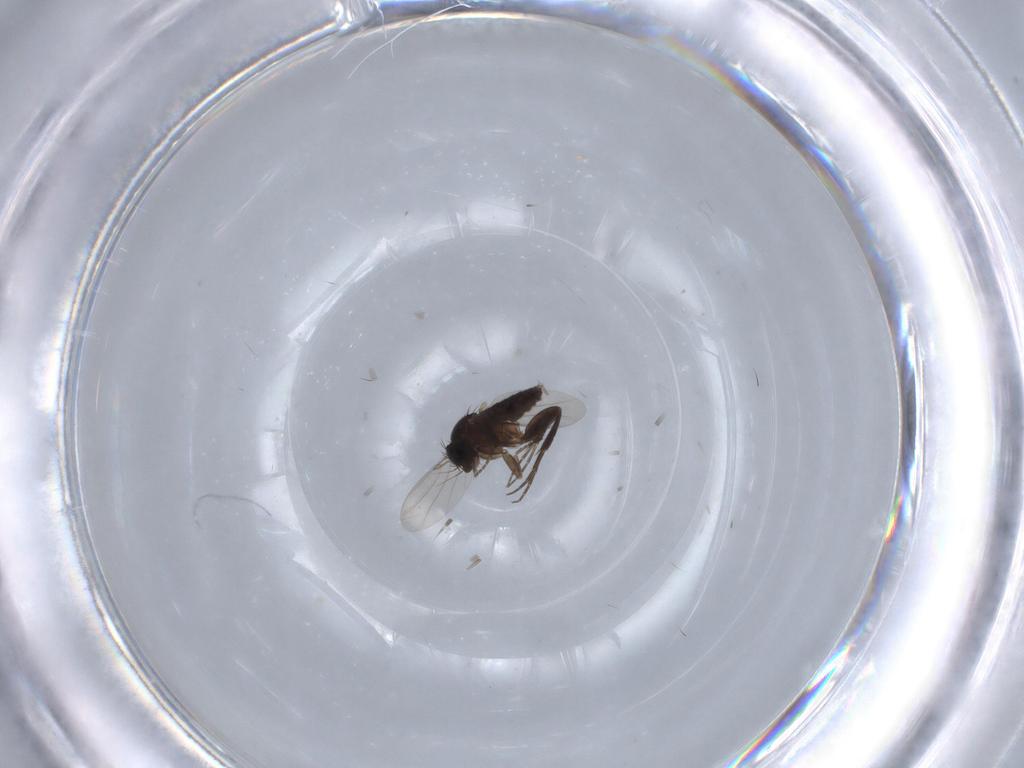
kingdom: Animalia
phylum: Arthropoda
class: Insecta
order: Diptera
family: Phoridae
